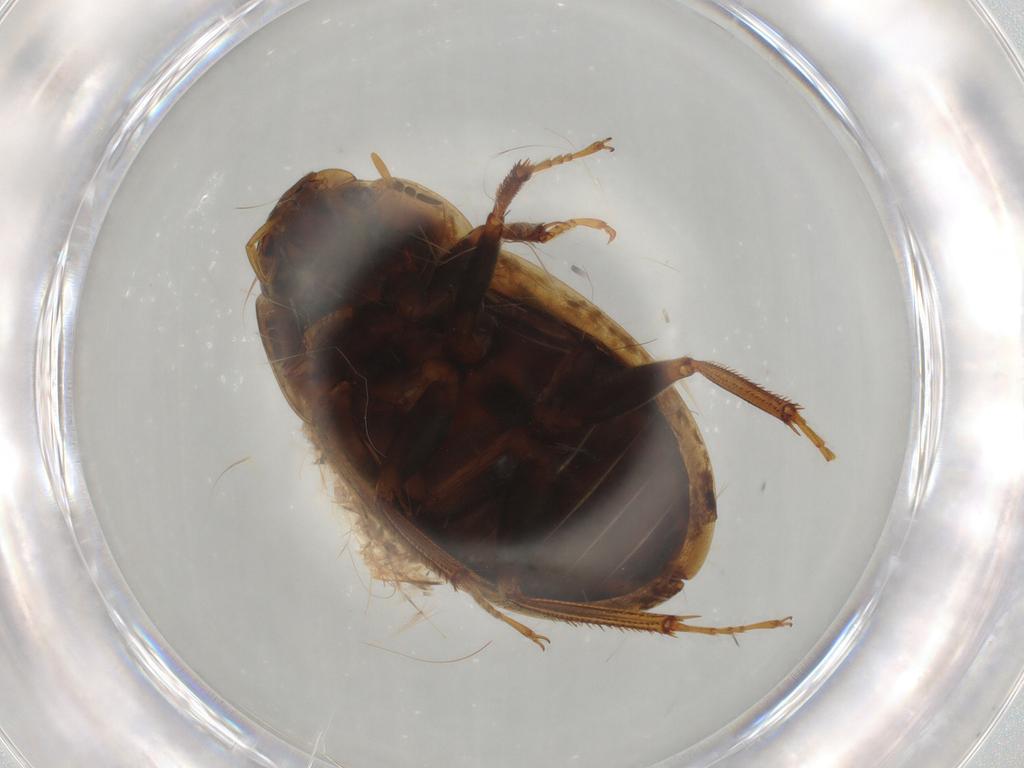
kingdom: Animalia
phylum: Arthropoda
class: Insecta
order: Coleoptera
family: Hydrophilidae
